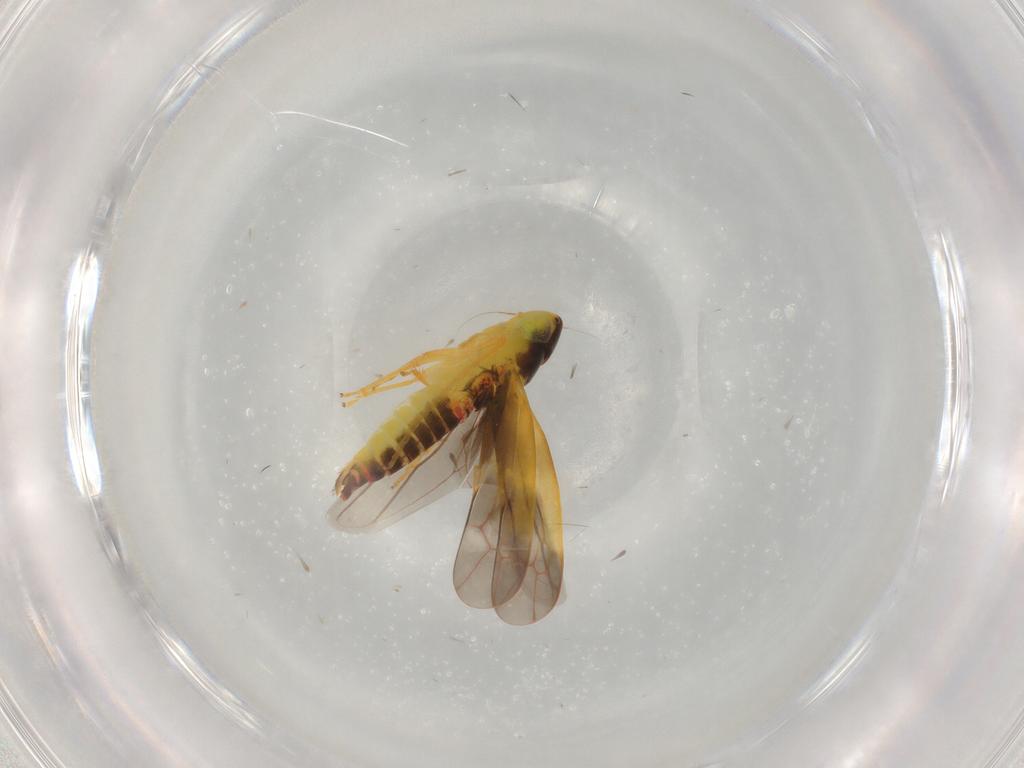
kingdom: Animalia
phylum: Arthropoda
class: Insecta
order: Hemiptera
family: Cicadellidae
